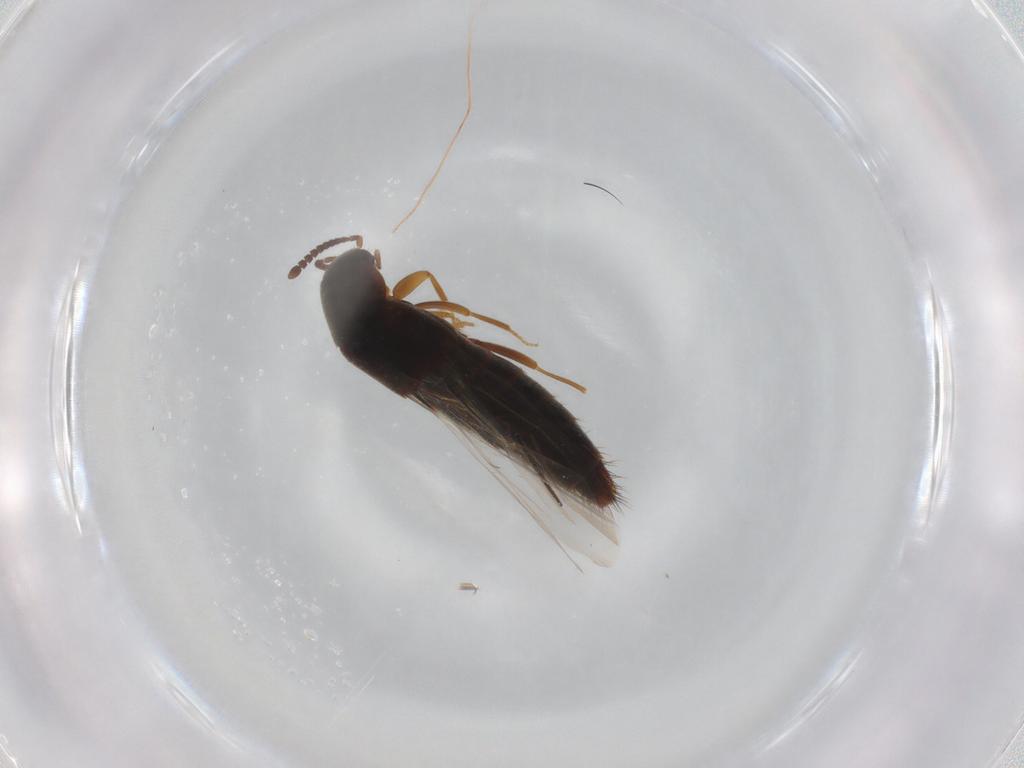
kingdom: Animalia
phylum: Arthropoda
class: Insecta
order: Coleoptera
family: Staphylinidae
